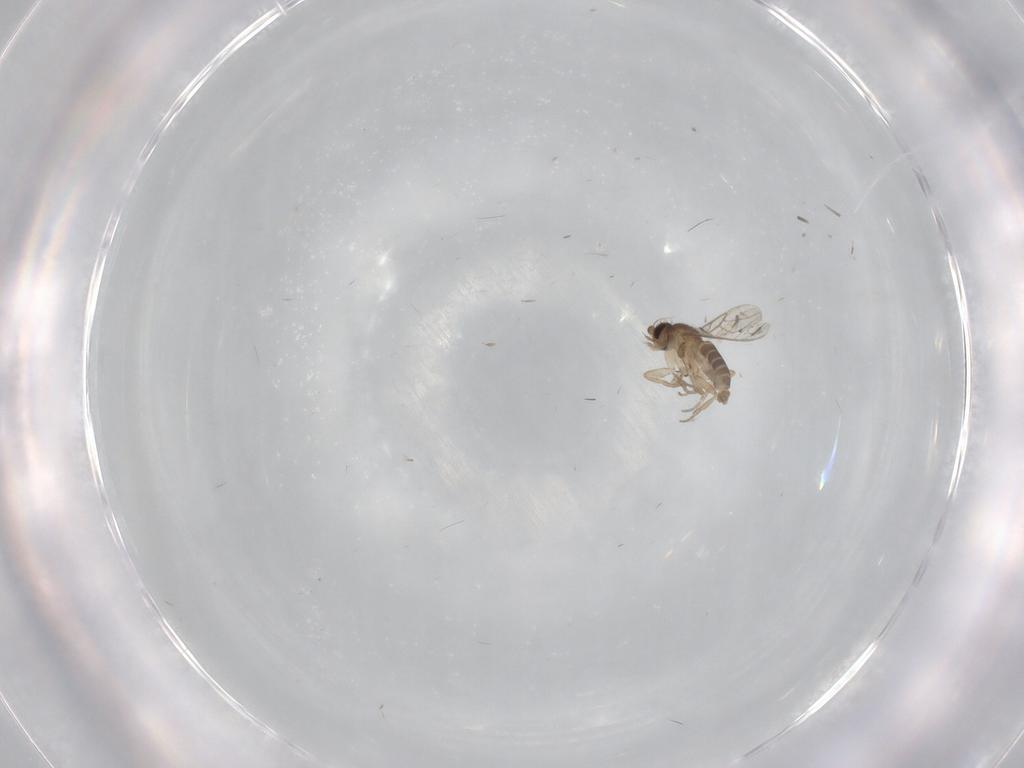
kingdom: Animalia
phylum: Arthropoda
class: Insecta
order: Diptera
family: Phoridae
